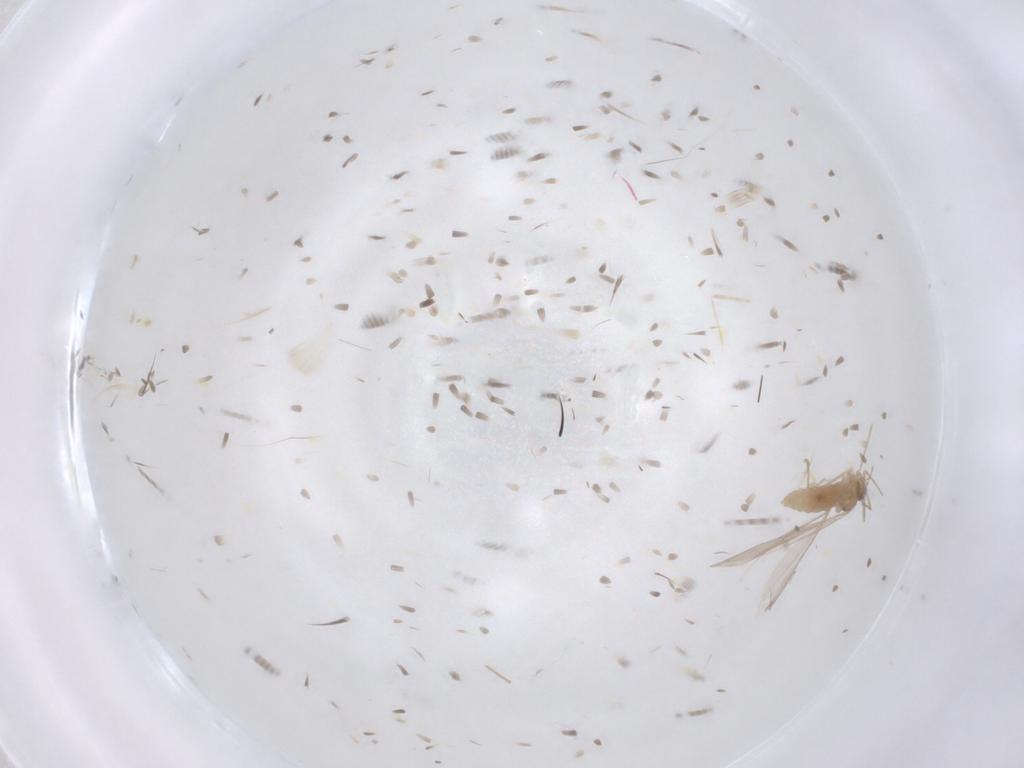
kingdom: Animalia
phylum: Arthropoda
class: Insecta
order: Diptera
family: Cecidomyiidae
